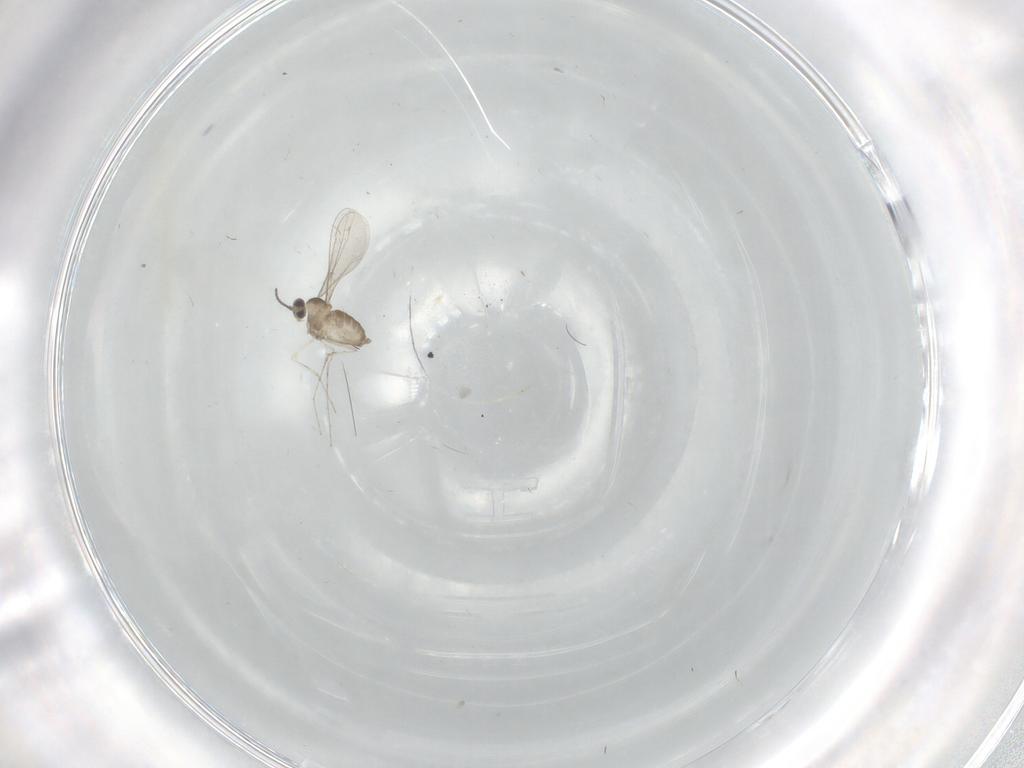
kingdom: Animalia
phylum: Arthropoda
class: Insecta
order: Diptera
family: Cecidomyiidae
